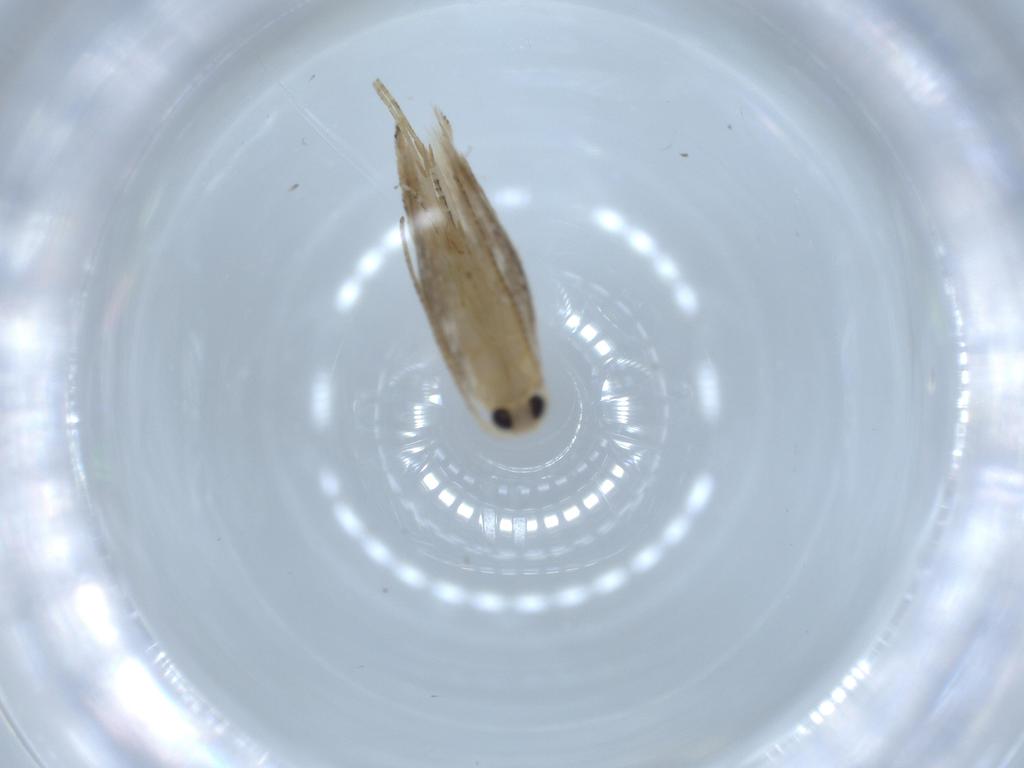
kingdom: Animalia
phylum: Arthropoda
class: Insecta
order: Lepidoptera
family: Bucculatricidae
